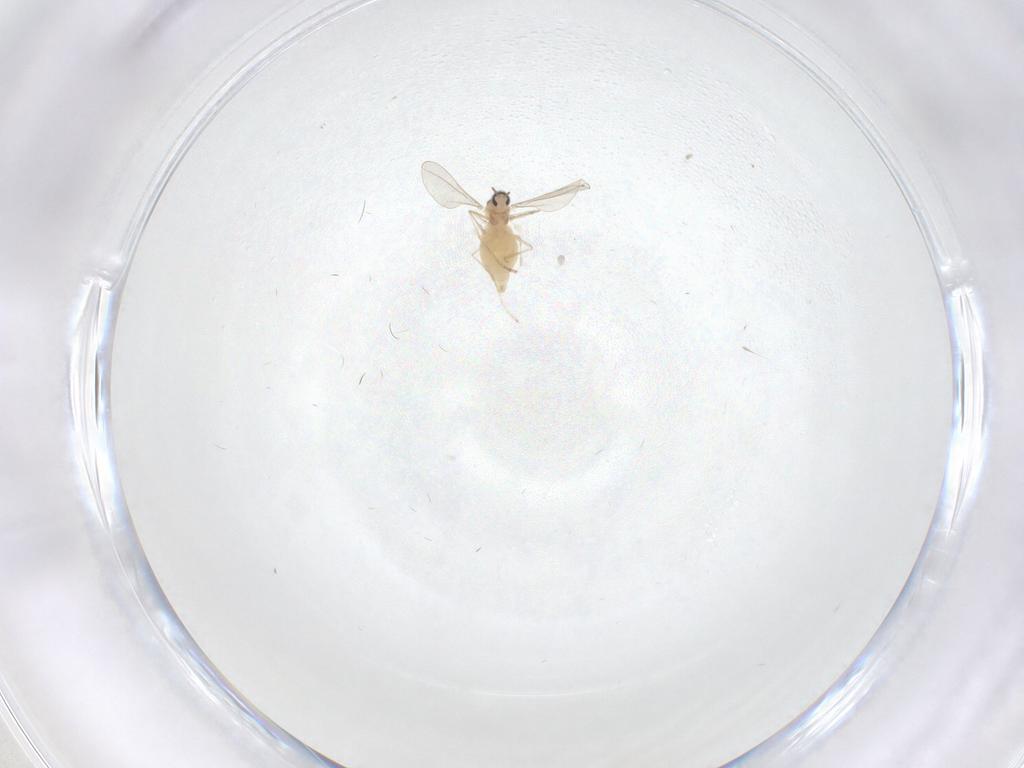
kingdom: Animalia
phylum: Arthropoda
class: Insecta
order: Diptera
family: Cecidomyiidae
